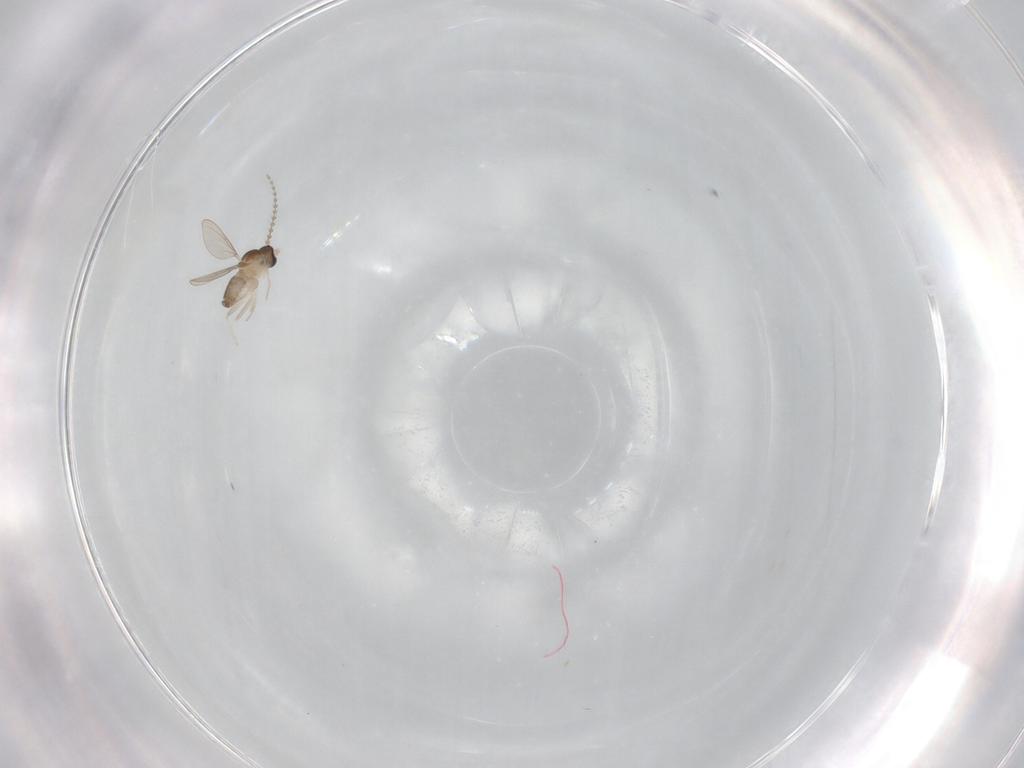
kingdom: Animalia
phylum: Arthropoda
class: Insecta
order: Diptera
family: Cecidomyiidae
